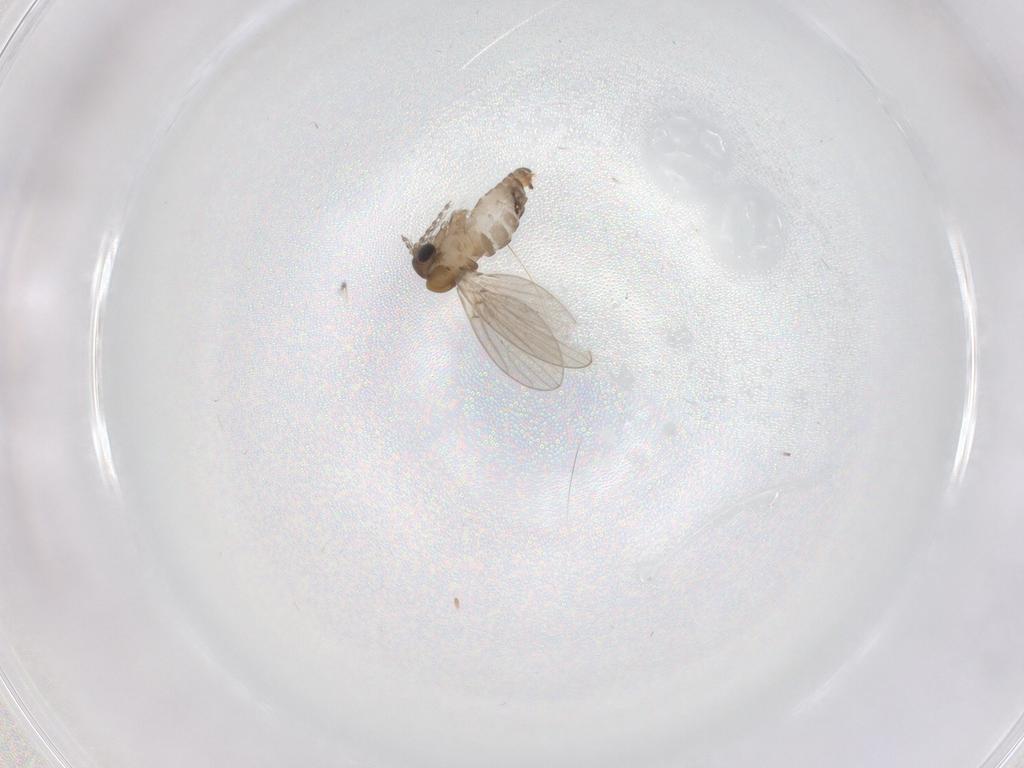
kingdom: Animalia
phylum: Arthropoda
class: Insecta
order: Diptera
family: Psychodidae
